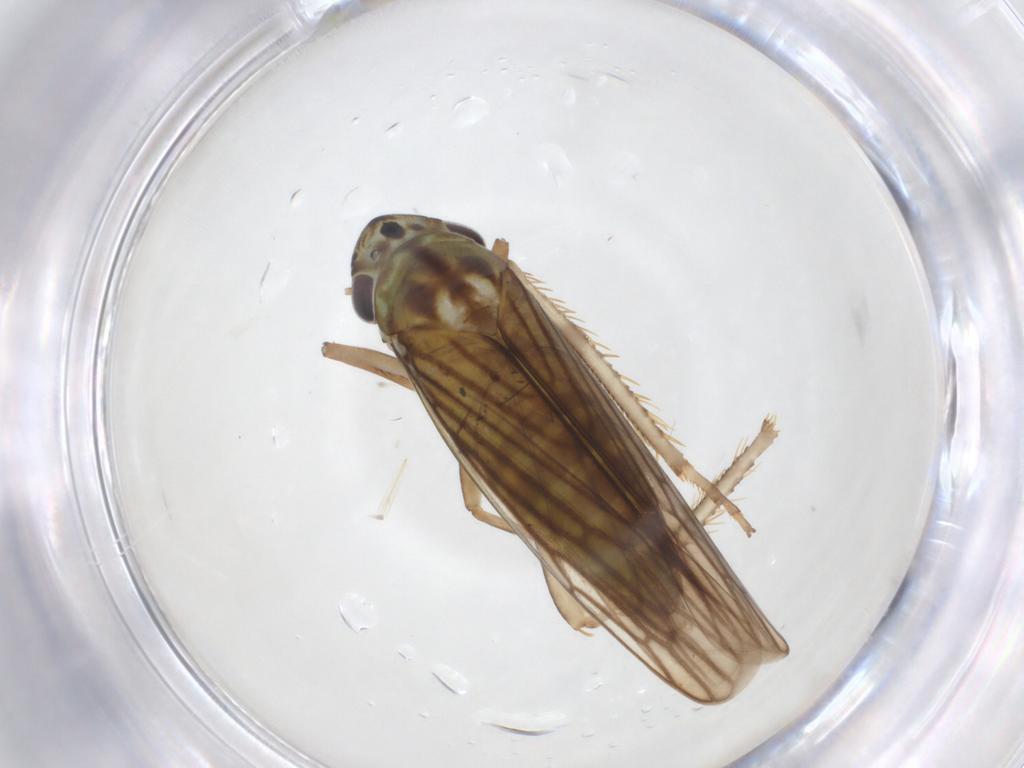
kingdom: Animalia
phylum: Arthropoda
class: Insecta
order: Hemiptera
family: Cicadellidae
